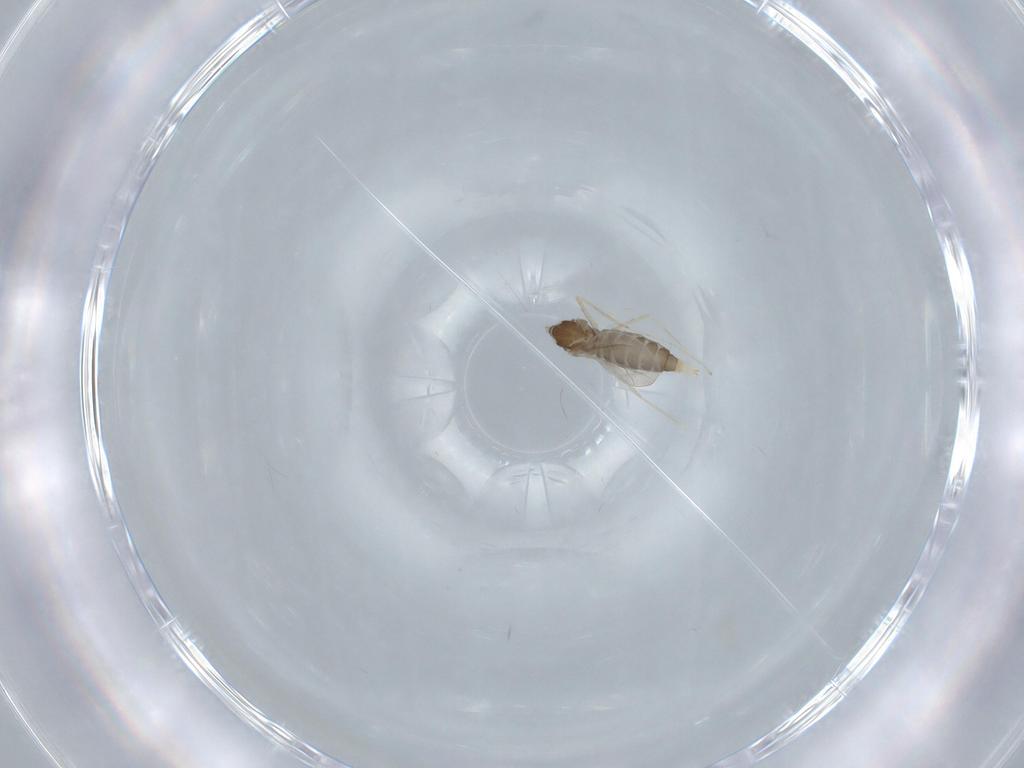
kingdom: Animalia
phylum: Arthropoda
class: Insecta
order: Diptera
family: Cecidomyiidae
